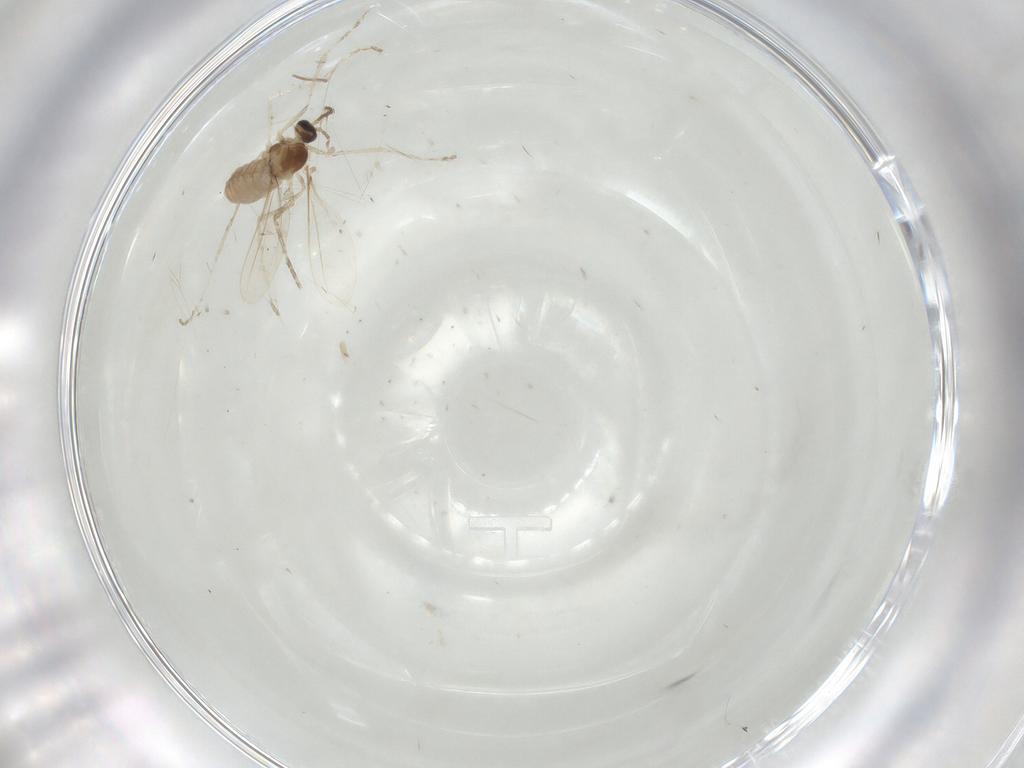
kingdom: Animalia
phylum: Arthropoda
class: Insecta
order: Diptera
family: Cecidomyiidae
